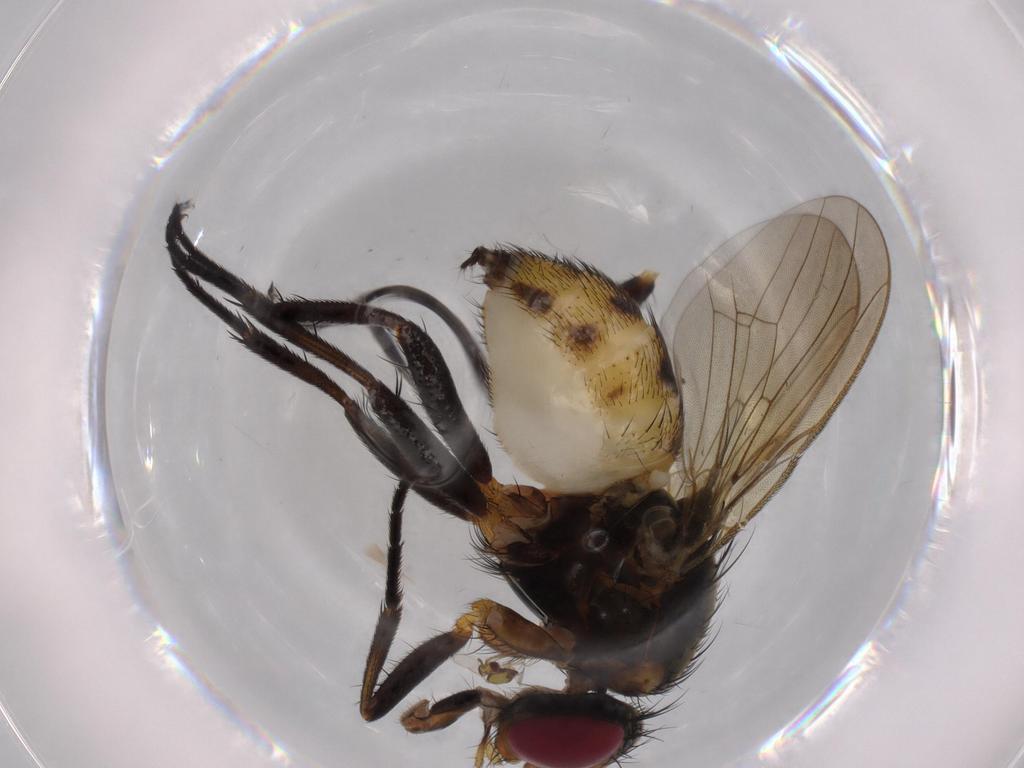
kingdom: Animalia
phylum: Arthropoda
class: Insecta
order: Diptera
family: Anthomyiidae
